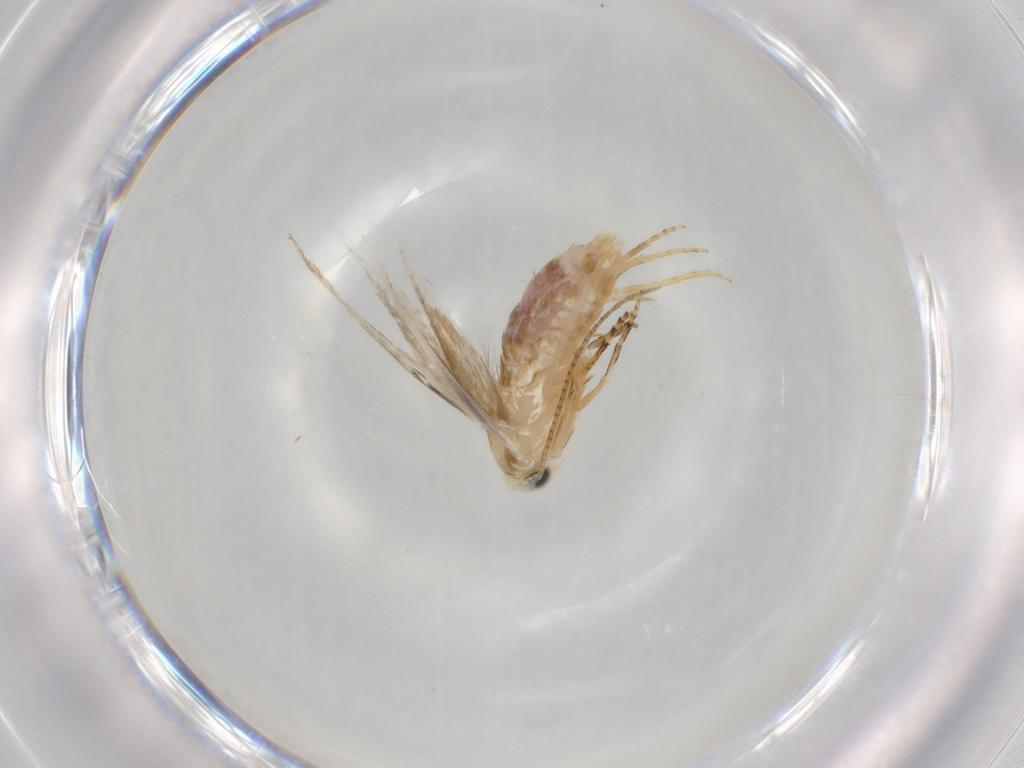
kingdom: Animalia
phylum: Arthropoda
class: Insecta
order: Lepidoptera
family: Bucculatricidae
